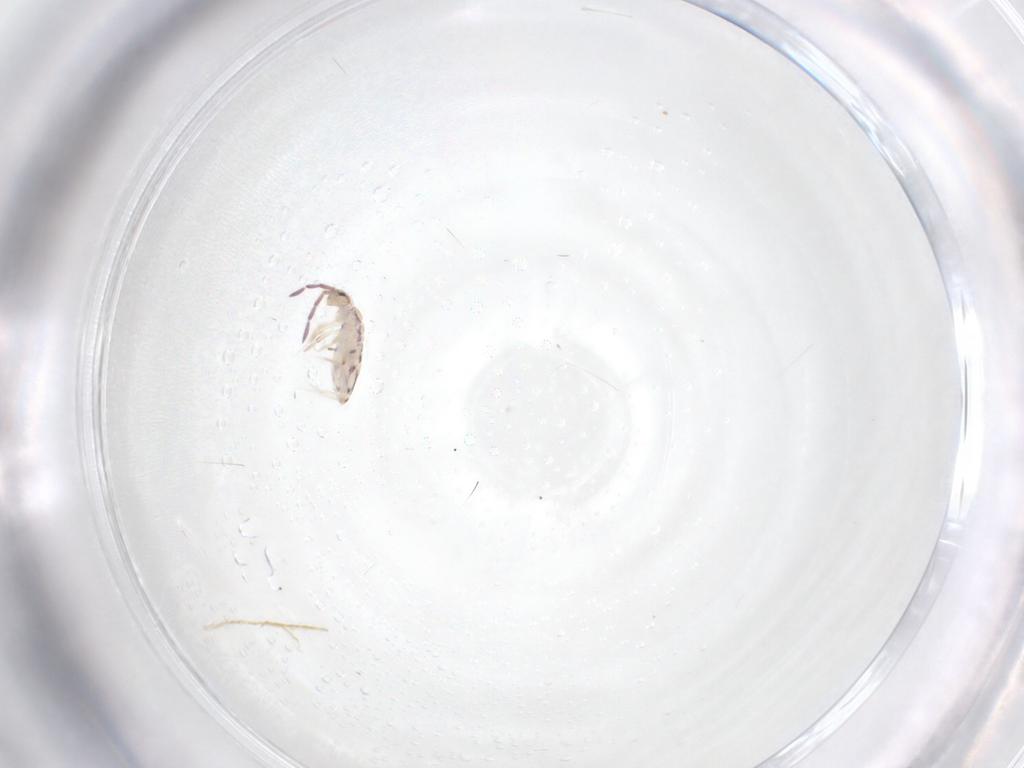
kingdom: Animalia
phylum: Arthropoda
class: Collembola
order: Entomobryomorpha
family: Entomobryidae
